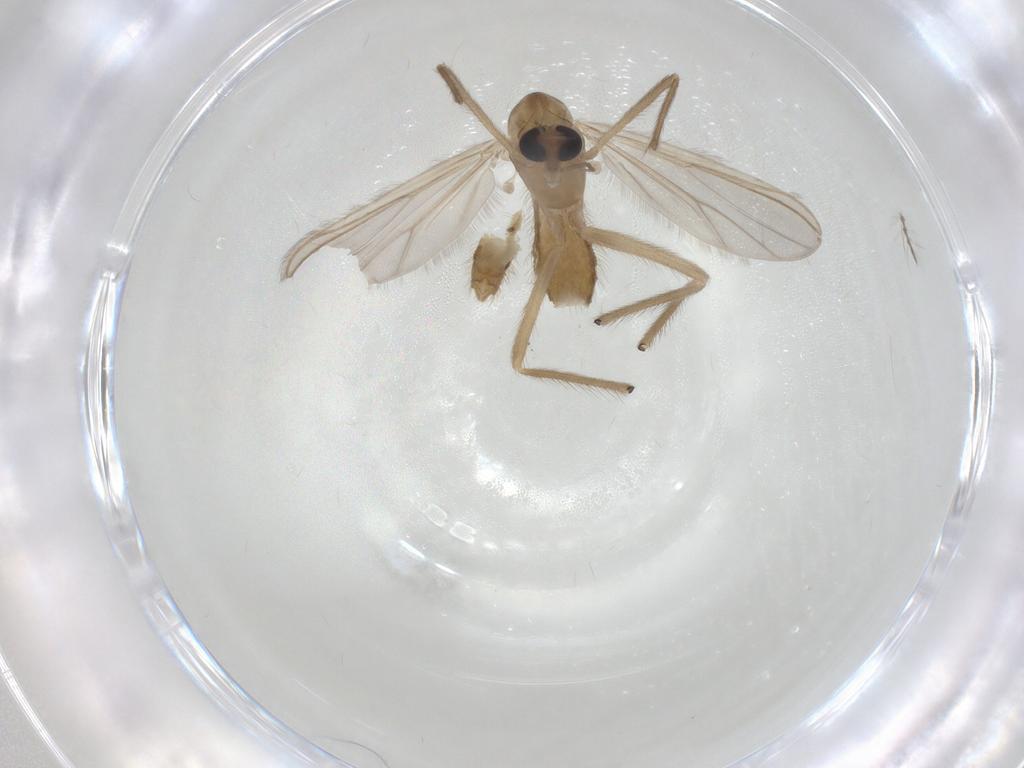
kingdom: Animalia
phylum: Arthropoda
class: Insecta
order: Diptera
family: Chironomidae
